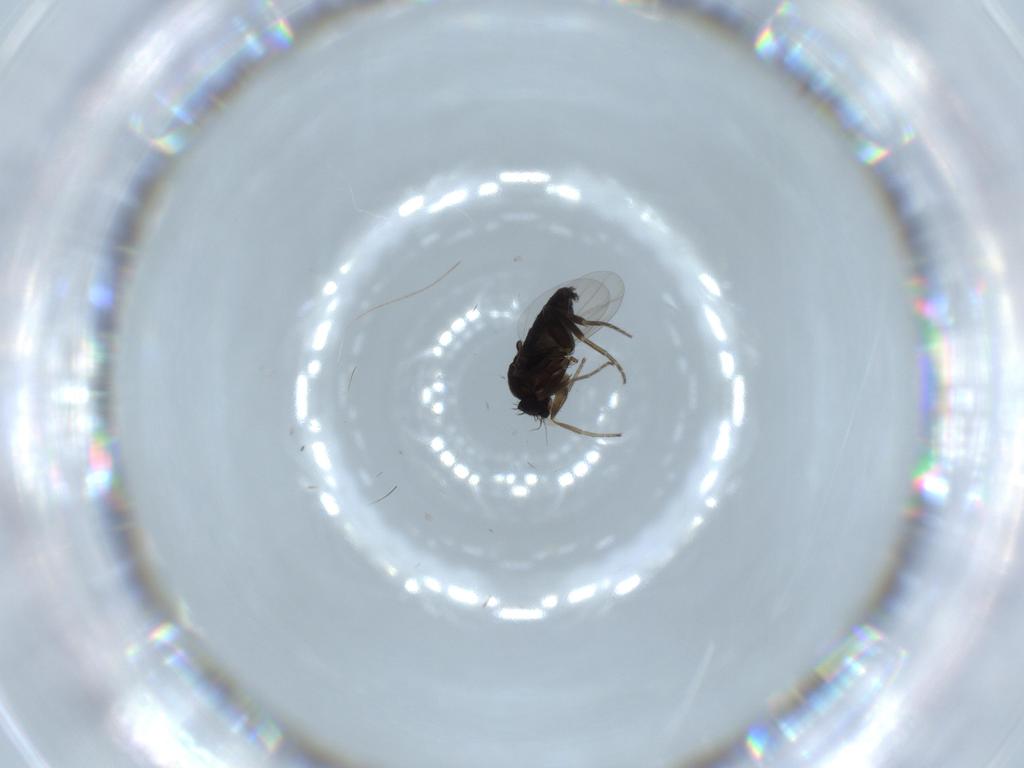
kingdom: Animalia
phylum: Arthropoda
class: Insecta
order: Diptera
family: Phoridae
